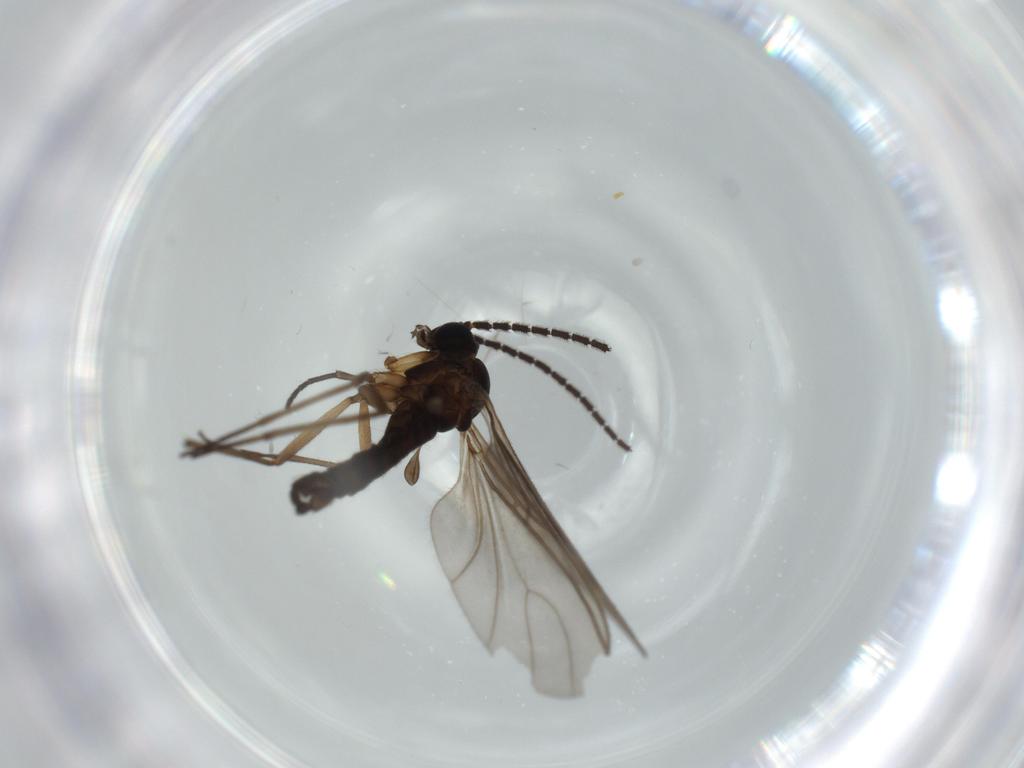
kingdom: Animalia
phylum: Arthropoda
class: Insecta
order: Diptera
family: Sciaridae
